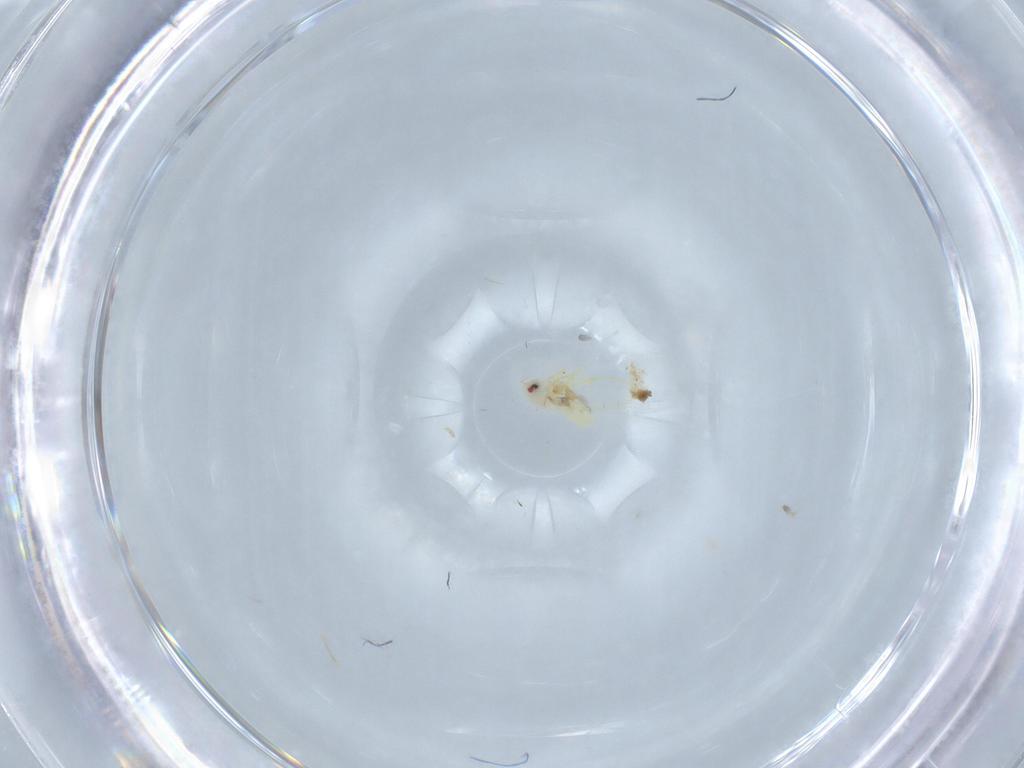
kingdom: Animalia
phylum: Arthropoda
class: Insecta
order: Hemiptera
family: Aleyrodidae
